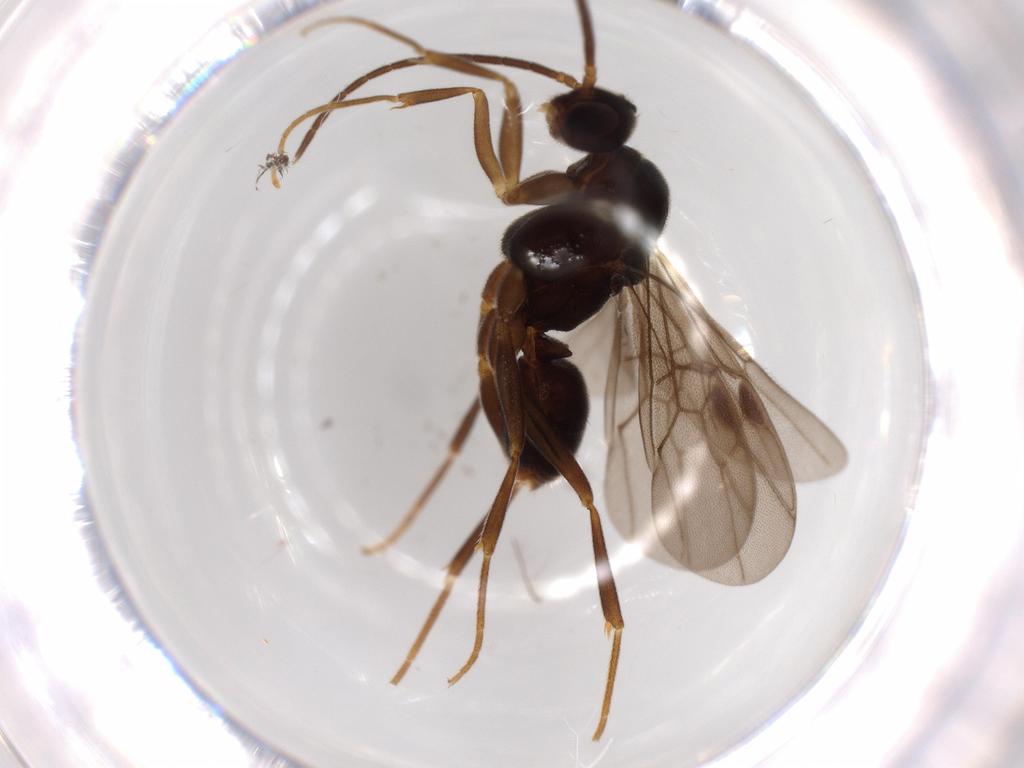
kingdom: Animalia
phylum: Arthropoda
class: Insecta
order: Hymenoptera
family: Formicidae
